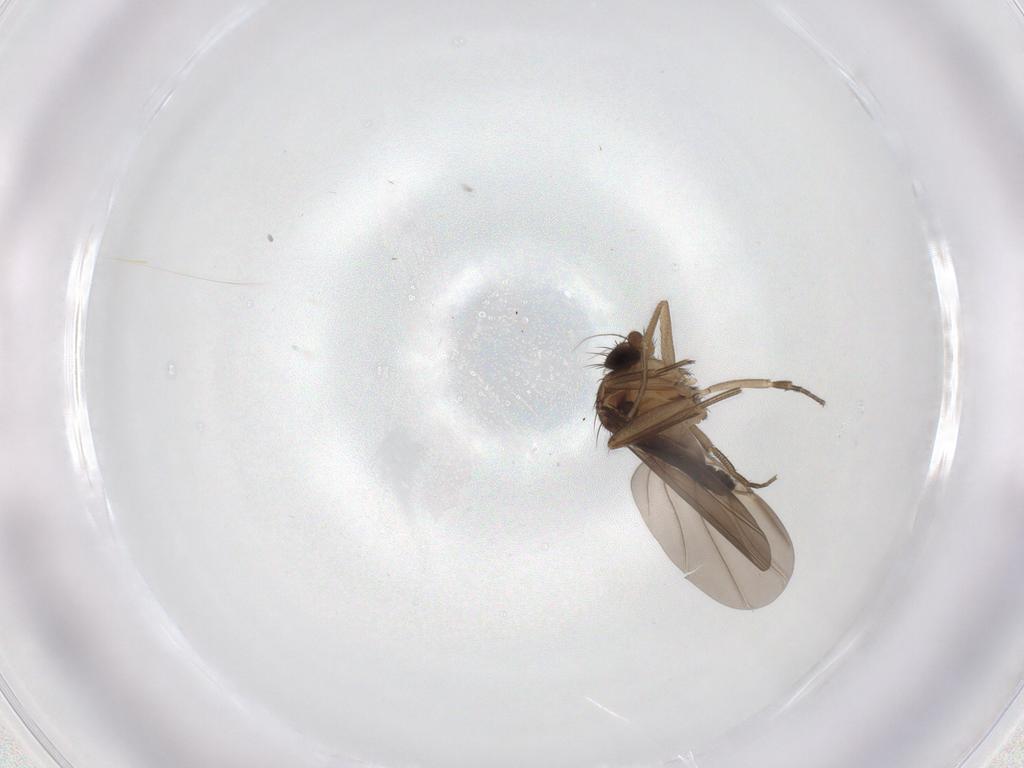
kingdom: Animalia
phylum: Arthropoda
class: Insecta
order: Diptera
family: Phoridae
